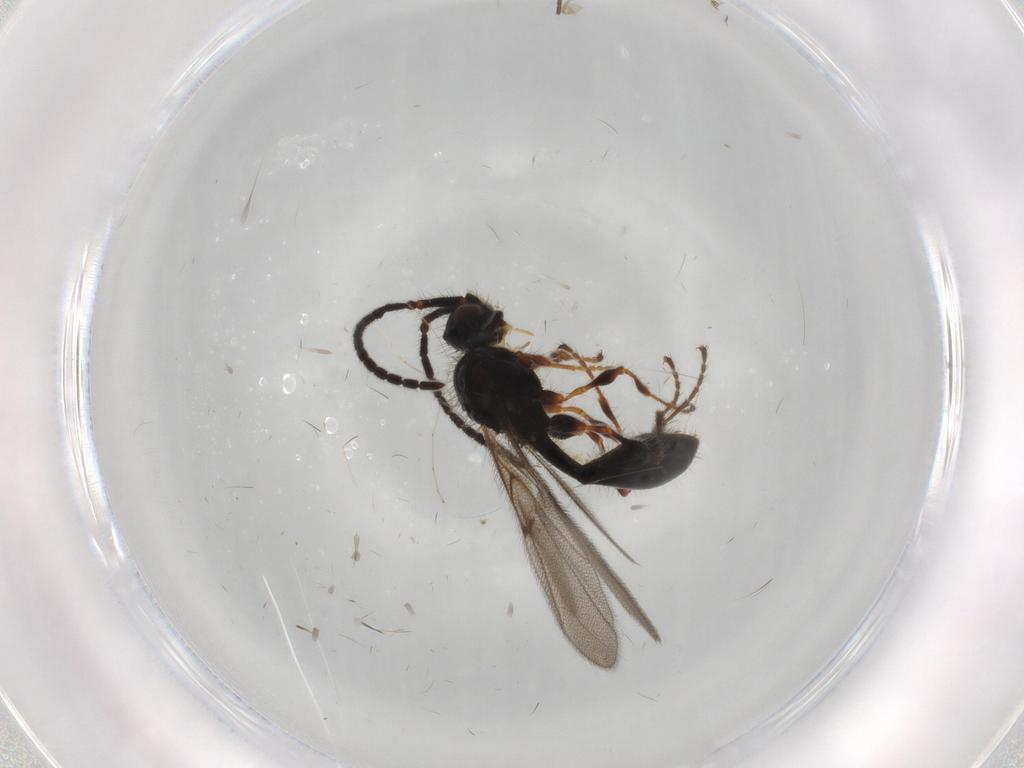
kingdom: Animalia
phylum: Arthropoda
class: Insecta
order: Hymenoptera
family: Diapriidae
